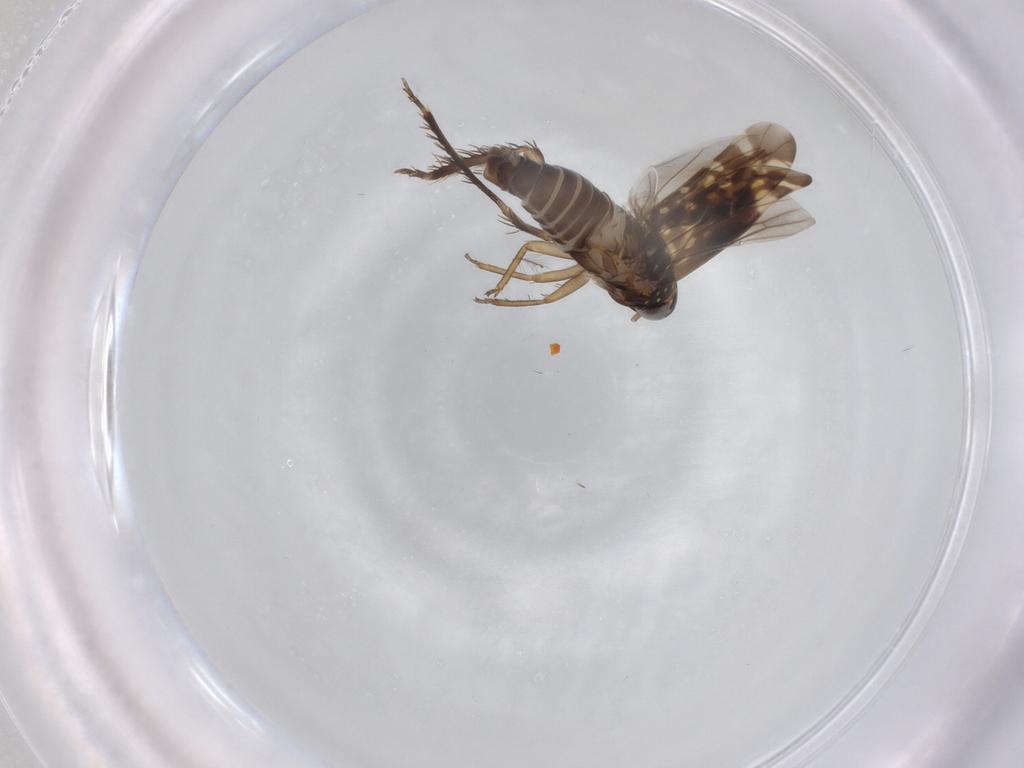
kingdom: Animalia
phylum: Arthropoda
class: Insecta
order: Hemiptera
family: Cicadellidae
